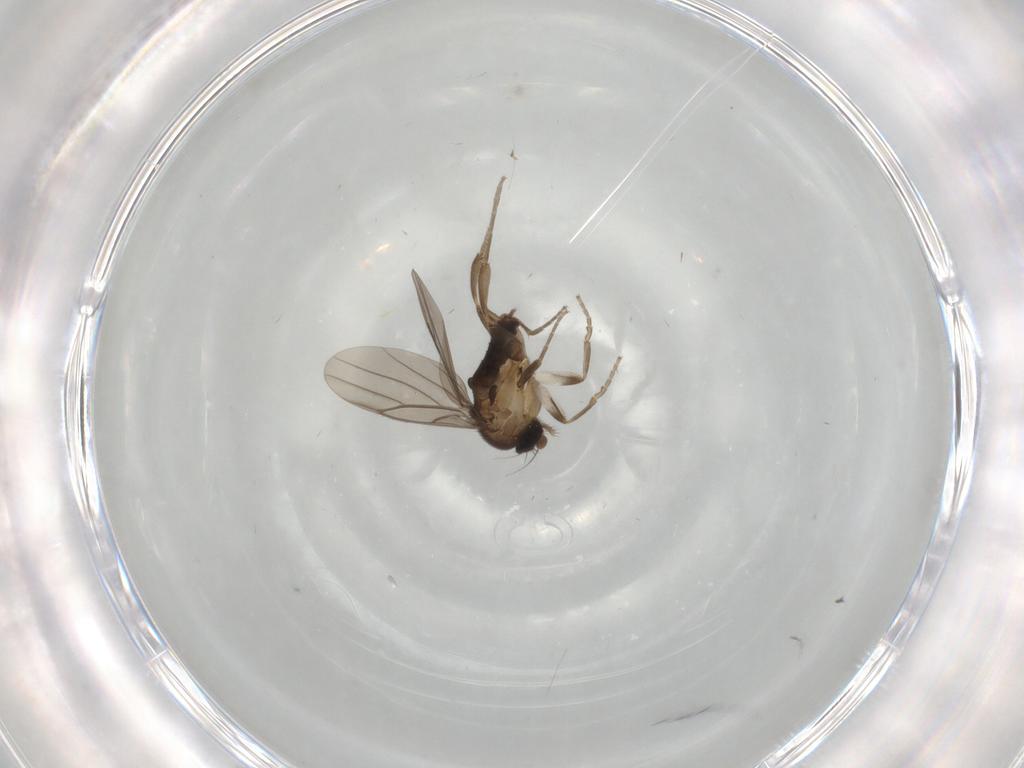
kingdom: Animalia
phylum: Arthropoda
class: Insecta
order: Diptera
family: Cecidomyiidae
